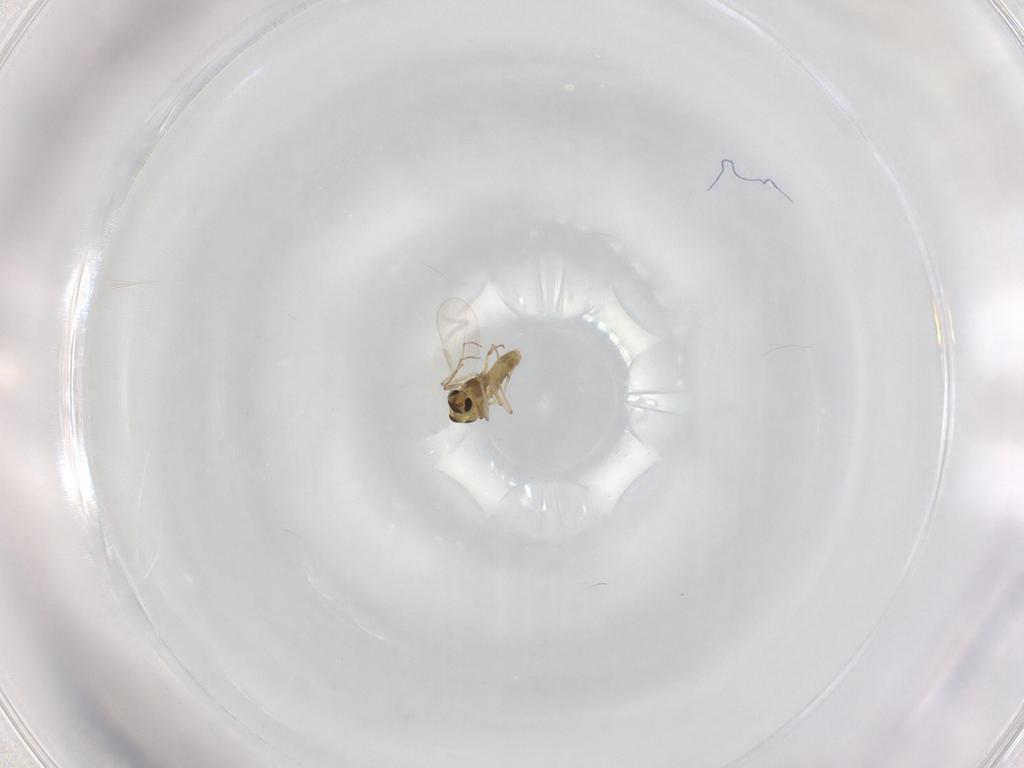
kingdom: Animalia
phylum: Arthropoda
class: Insecta
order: Diptera
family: Chironomidae
